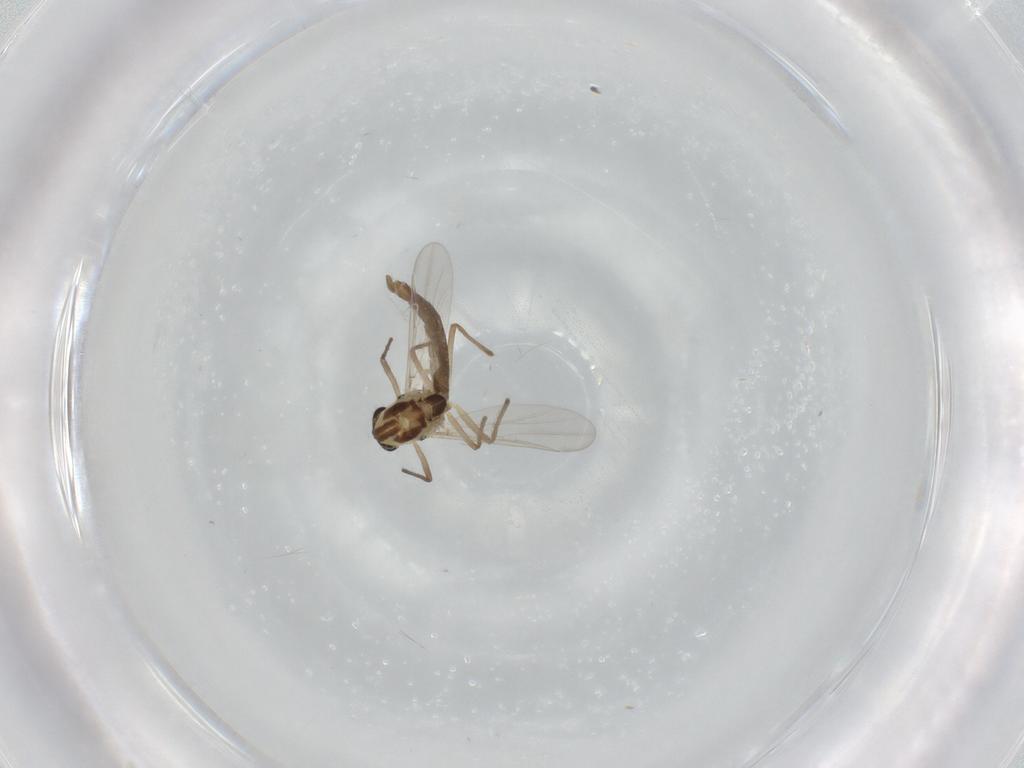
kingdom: Animalia
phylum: Arthropoda
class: Insecta
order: Diptera
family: Chironomidae
